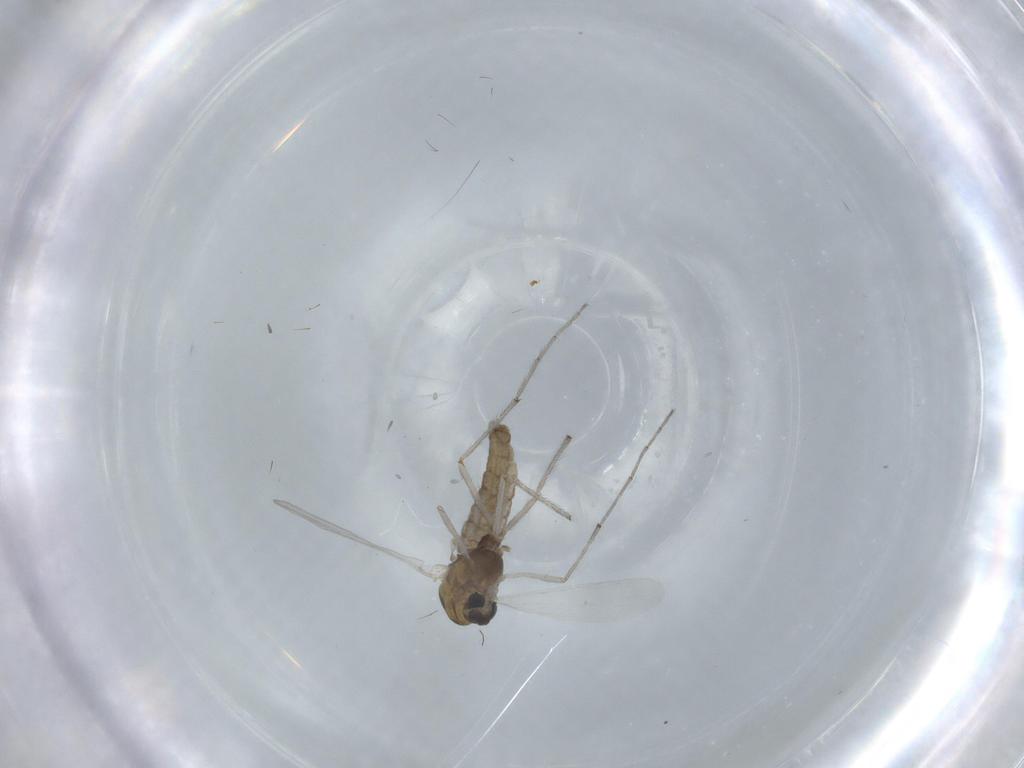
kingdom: Animalia
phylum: Arthropoda
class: Insecta
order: Diptera
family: Chironomidae
